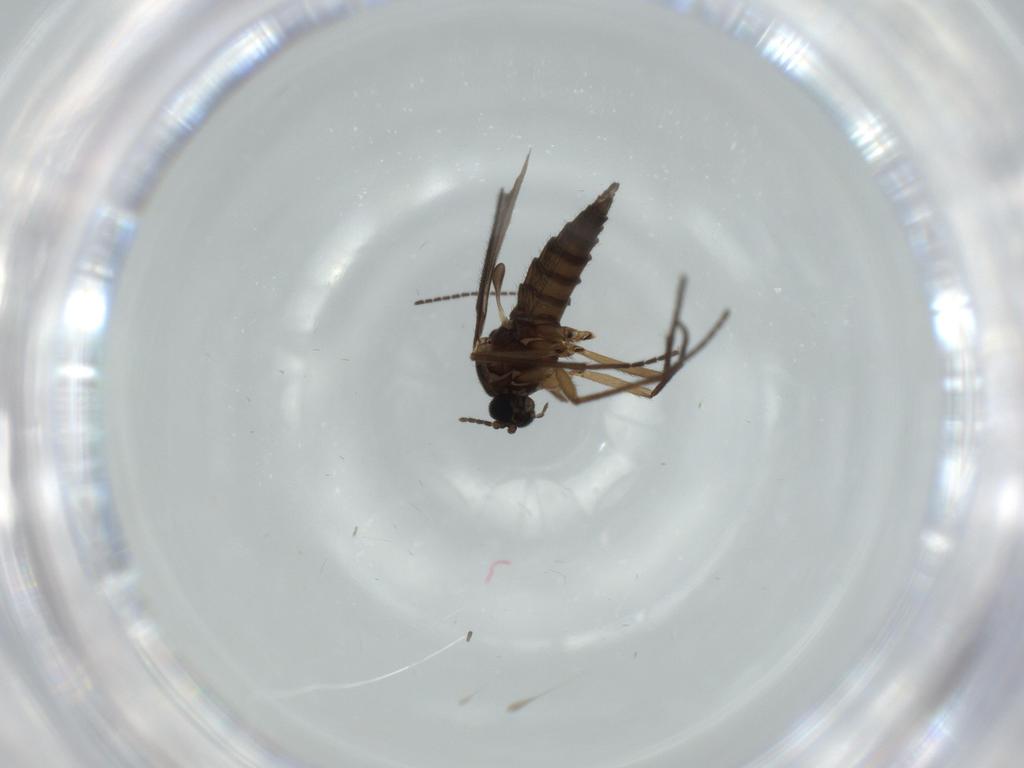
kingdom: Animalia
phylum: Arthropoda
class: Insecta
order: Diptera
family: Sciaridae
